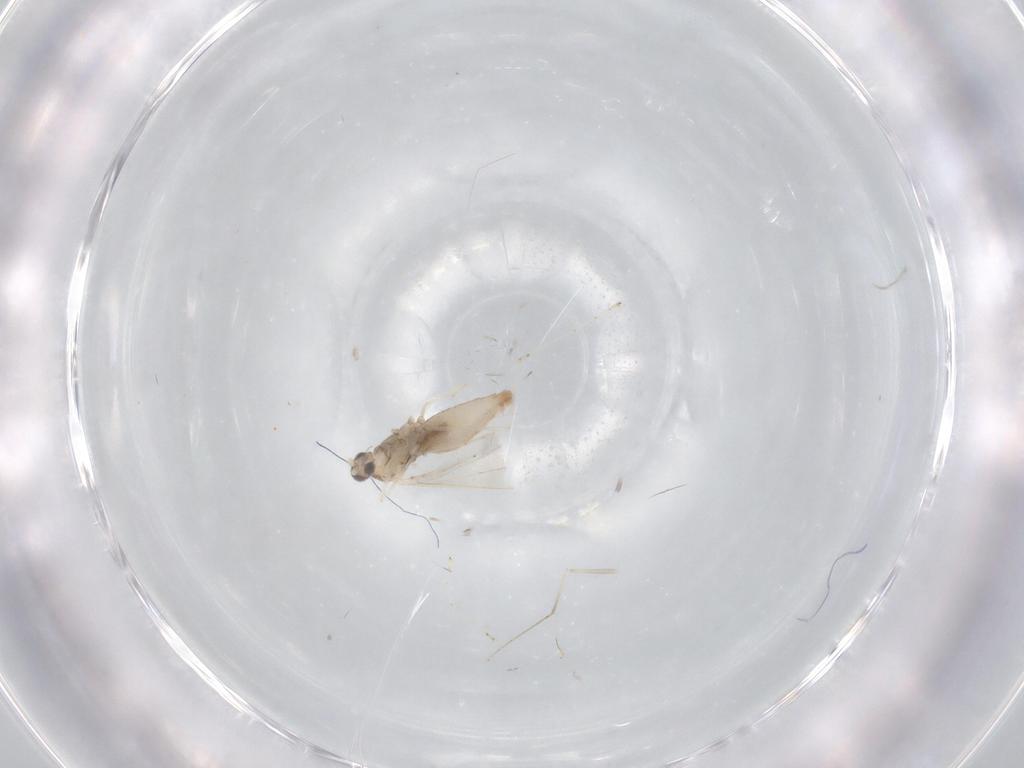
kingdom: Animalia
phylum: Arthropoda
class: Insecta
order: Diptera
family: Cecidomyiidae
